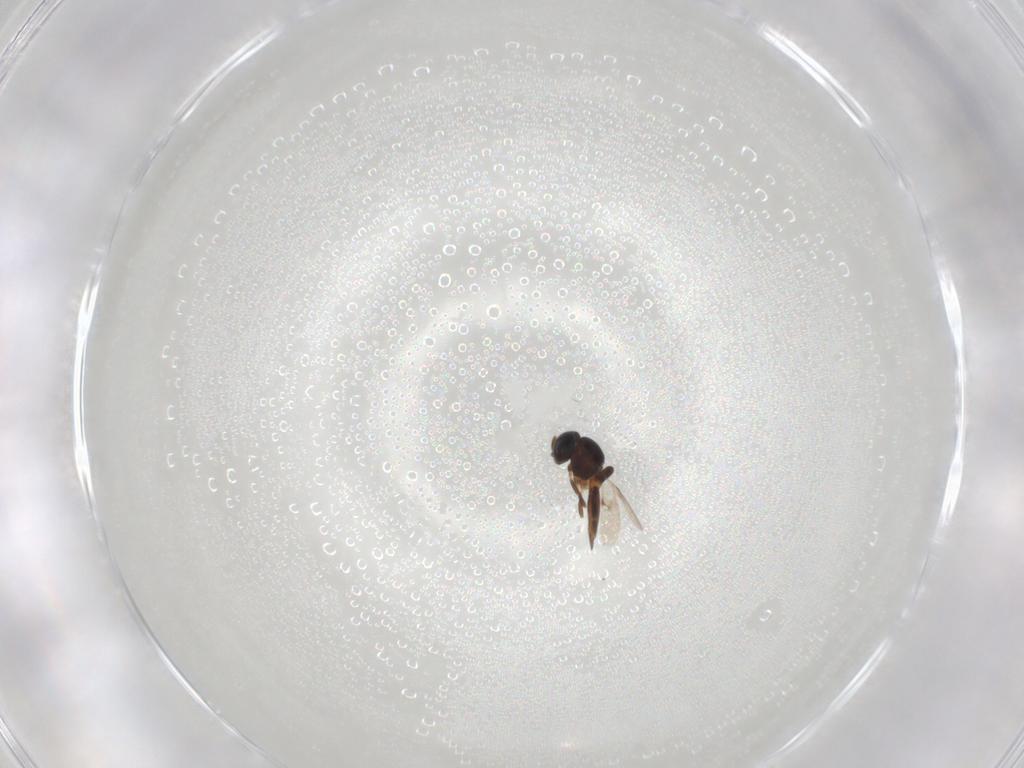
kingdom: Animalia
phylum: Arthropoda
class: Insecta
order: Hymenoptera
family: Scelionidae
